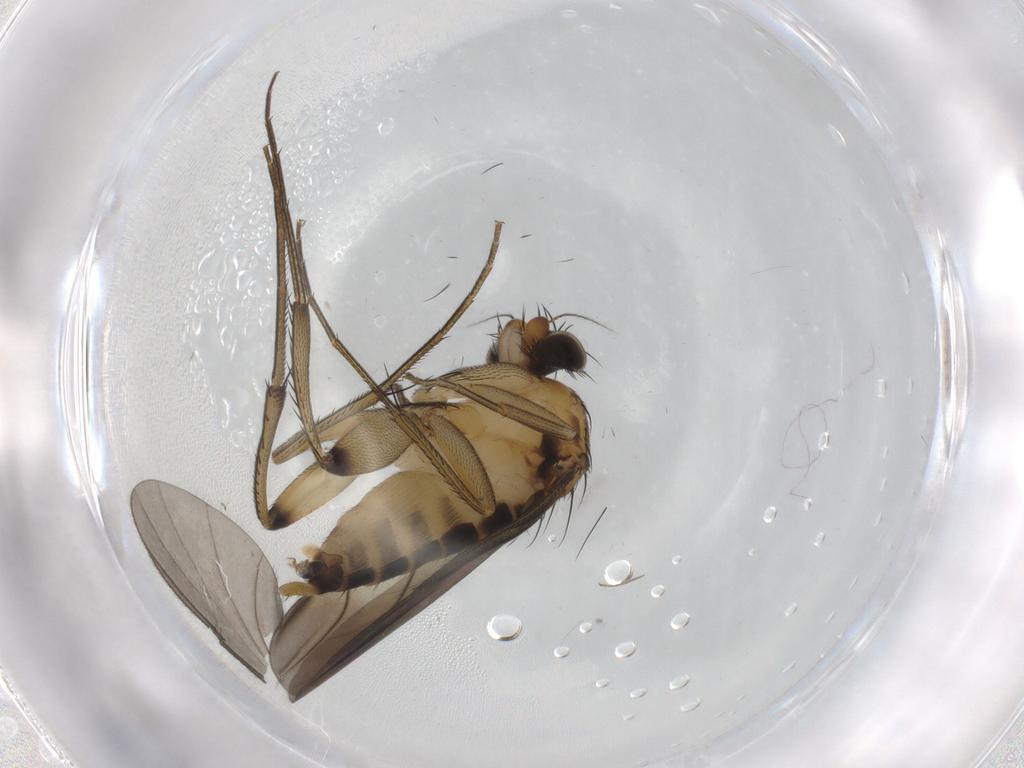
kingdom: Animalia
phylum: Arthropoda
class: Insecta
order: Diptera
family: Phoridae
